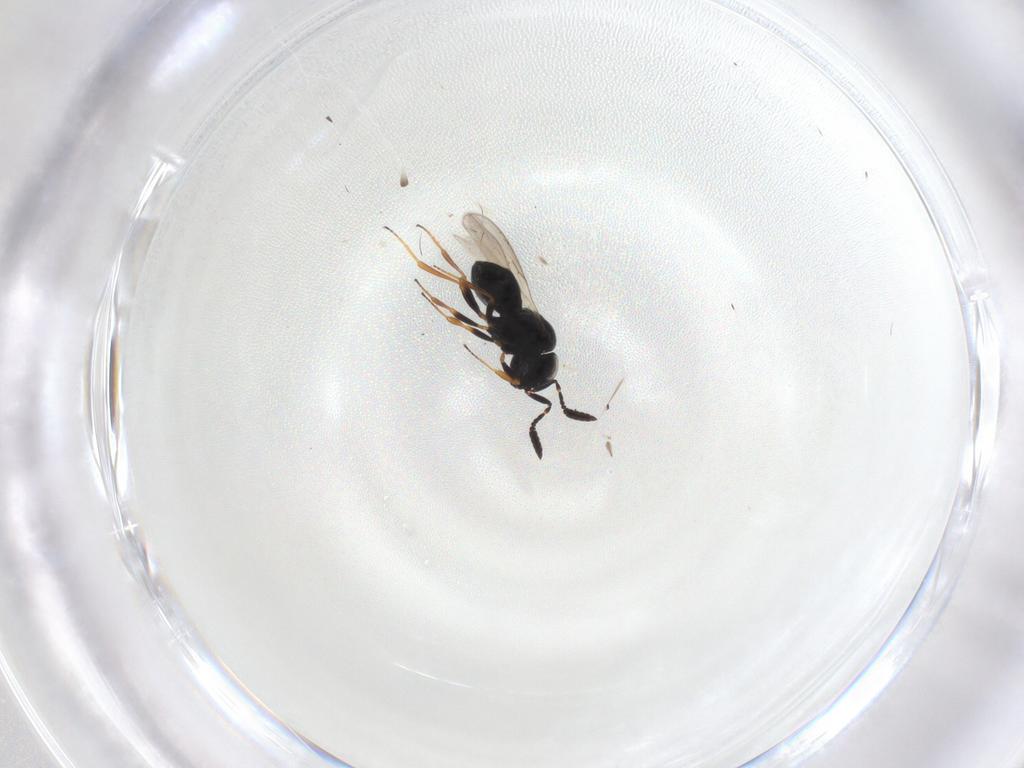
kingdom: Animalia
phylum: Arthropoda
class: Insecta
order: Hymenoptera
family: Scelionidae
